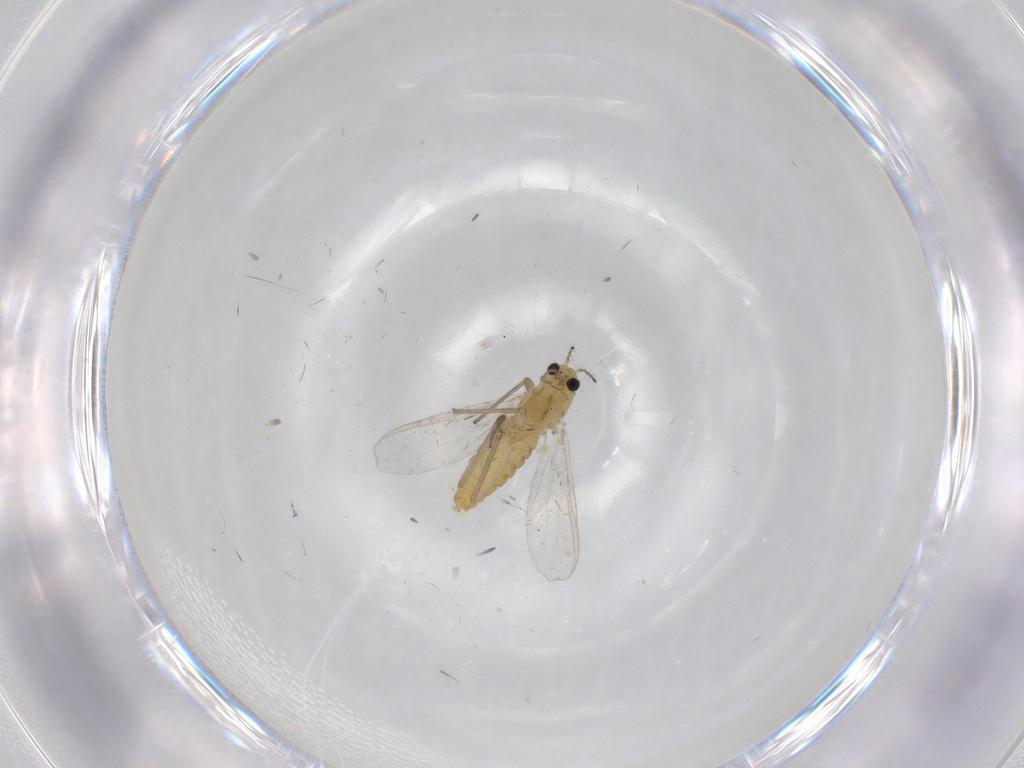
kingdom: Animalia
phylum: Arthropoda
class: Insecta
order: Diptera
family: Chironomidae
